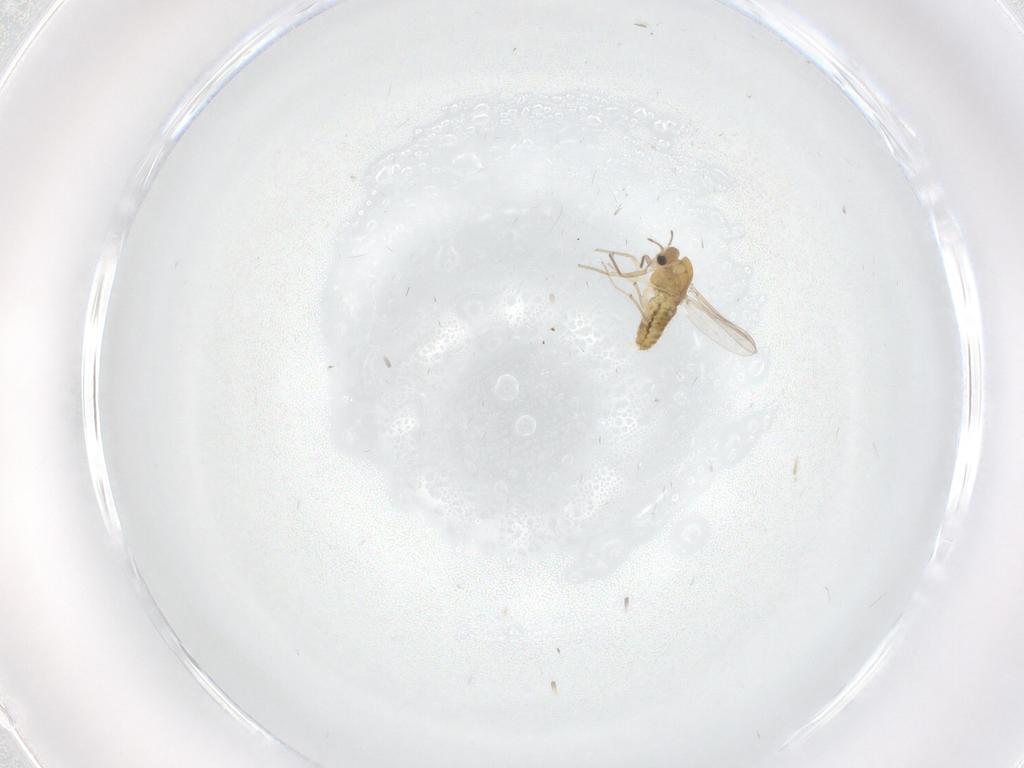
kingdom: Animalia
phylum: Arthropoda
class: Insecta
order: Diptera
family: Chironomidae
